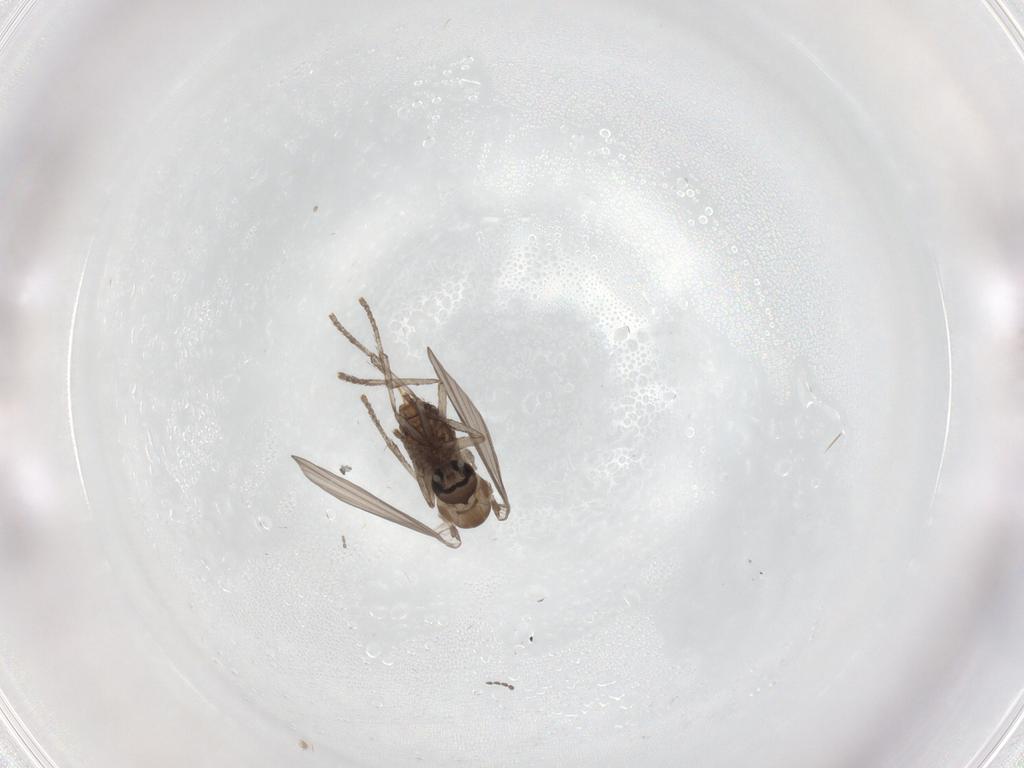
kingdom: Animalia
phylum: Arthropoda
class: Insecta
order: Diptera
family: Psychodidae
